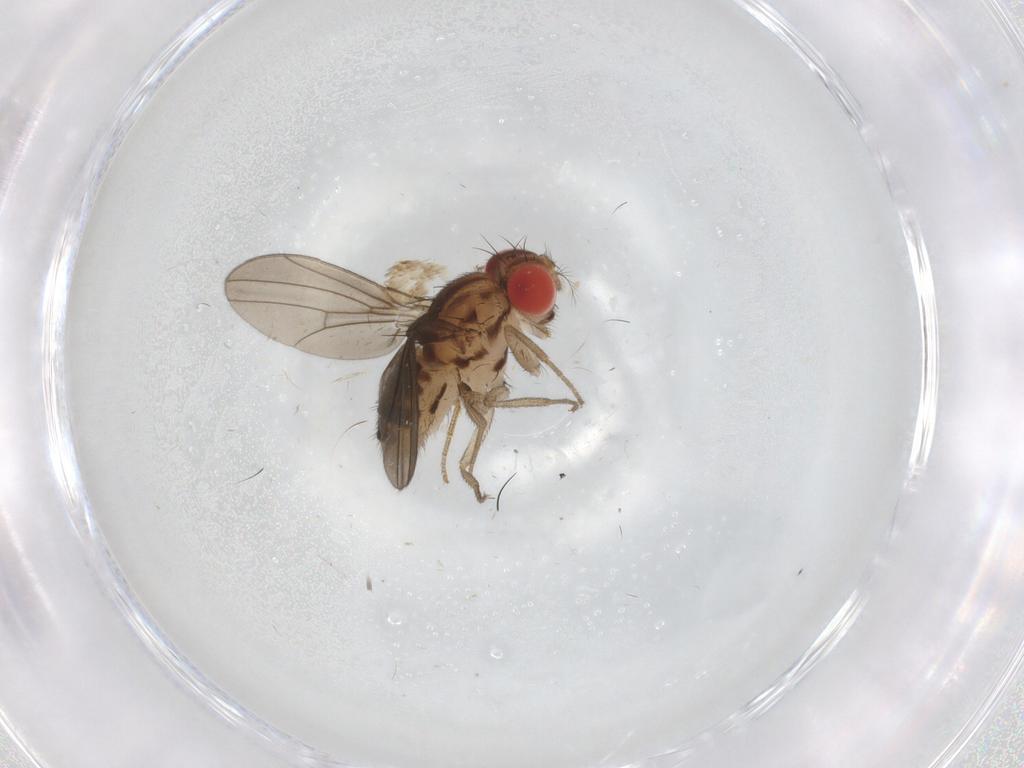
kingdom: Animalia
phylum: Arthropoda
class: Insecta
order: Diptera
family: Drosophilidae
